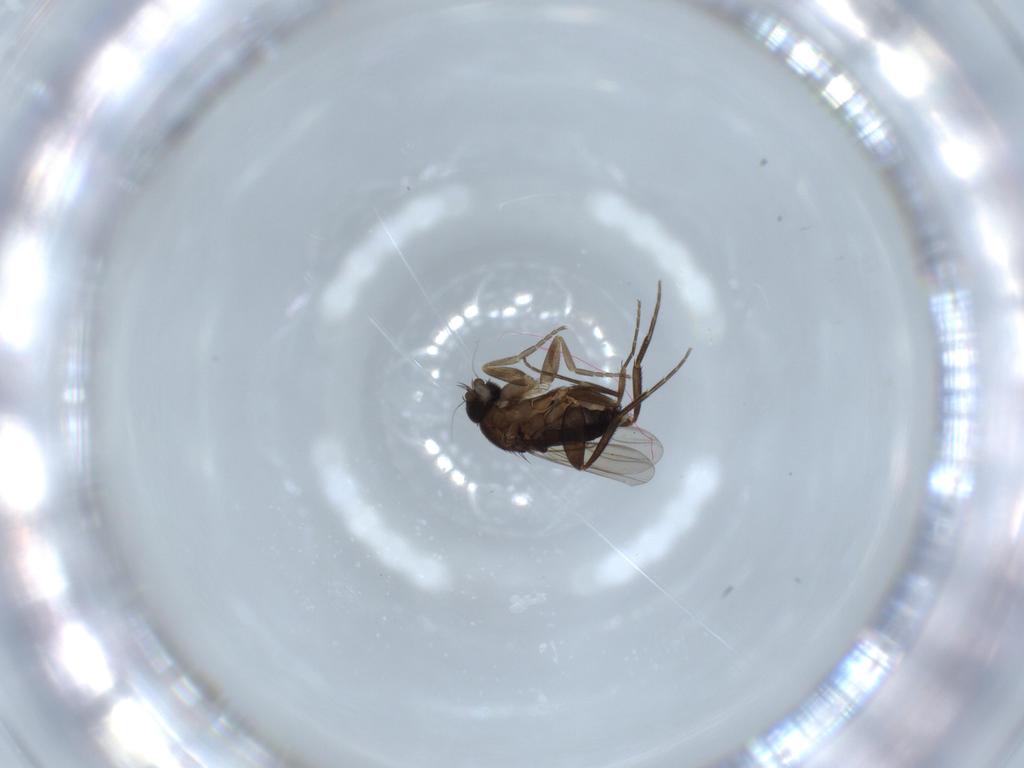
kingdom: Animalia
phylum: Arthropoda
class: Insecta
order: Diptera
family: Phoridae
